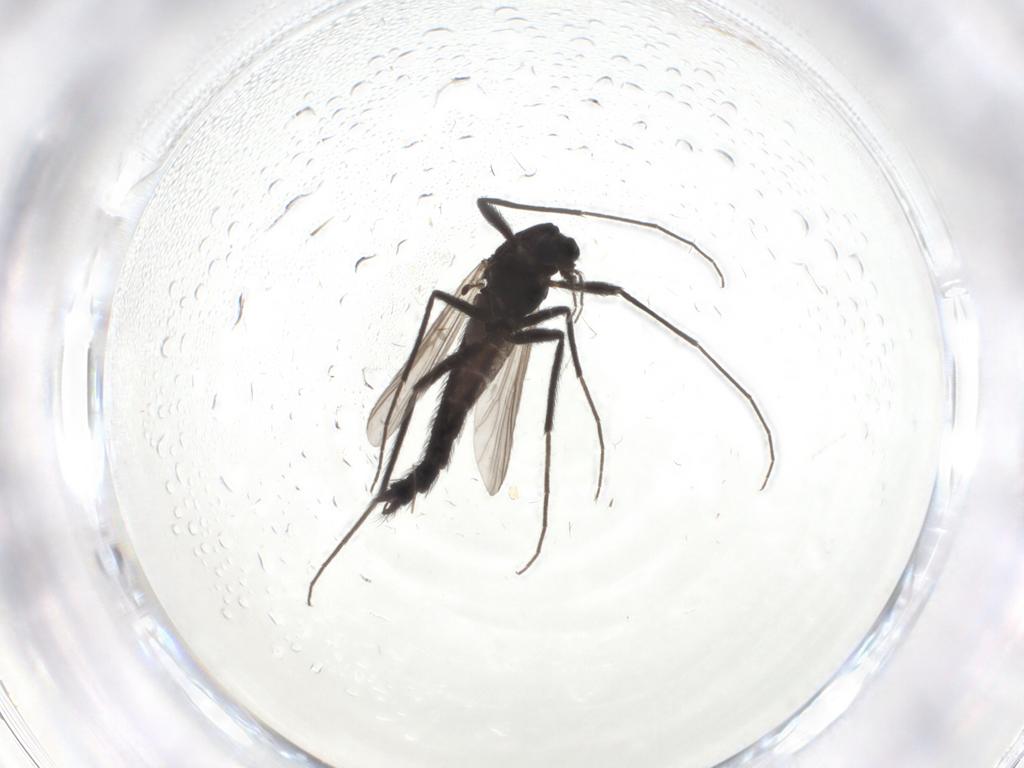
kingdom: Animalia
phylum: Arthropoda
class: Insecta
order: Diptera
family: Chironomidae
